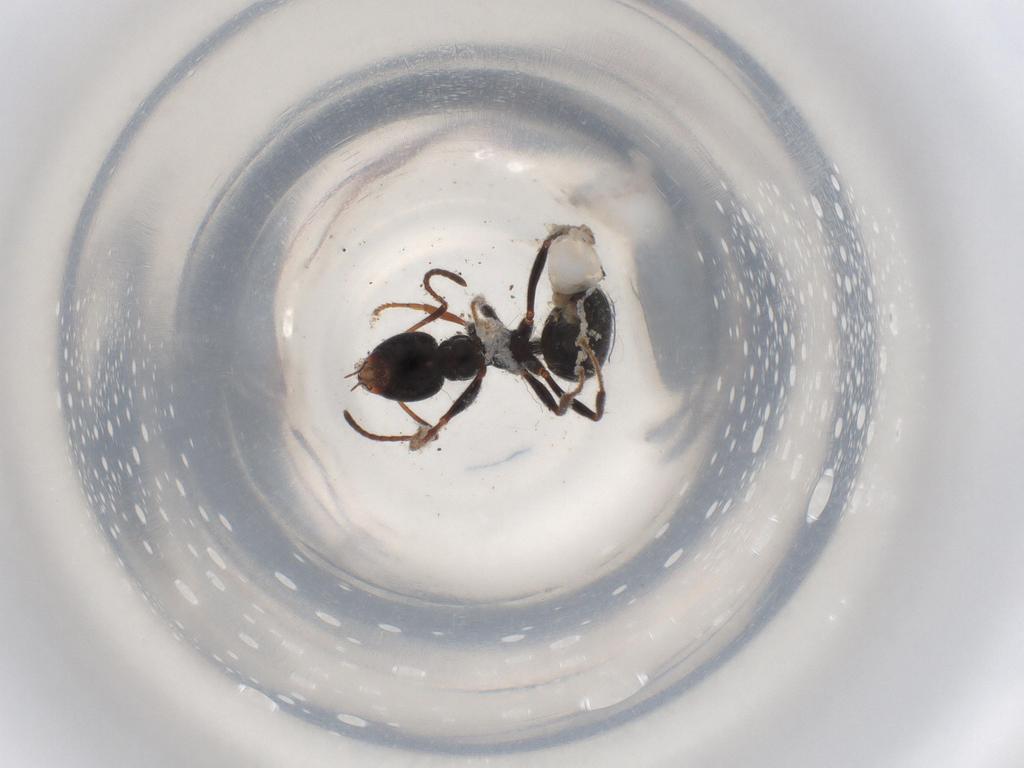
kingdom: Animalia
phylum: Arthropoda
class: Insecta
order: Hymenoptera
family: Formicidae
